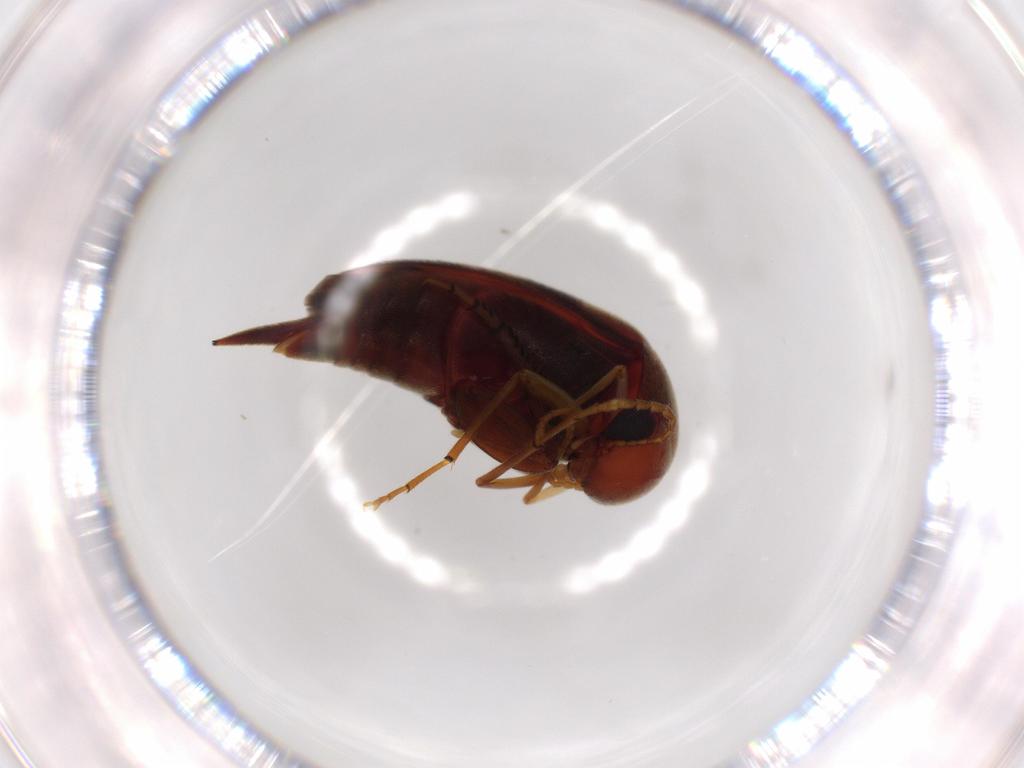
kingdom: Animalia
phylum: Arthropoda
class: Insecta
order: Coleoptera
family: Chrysomelidae
